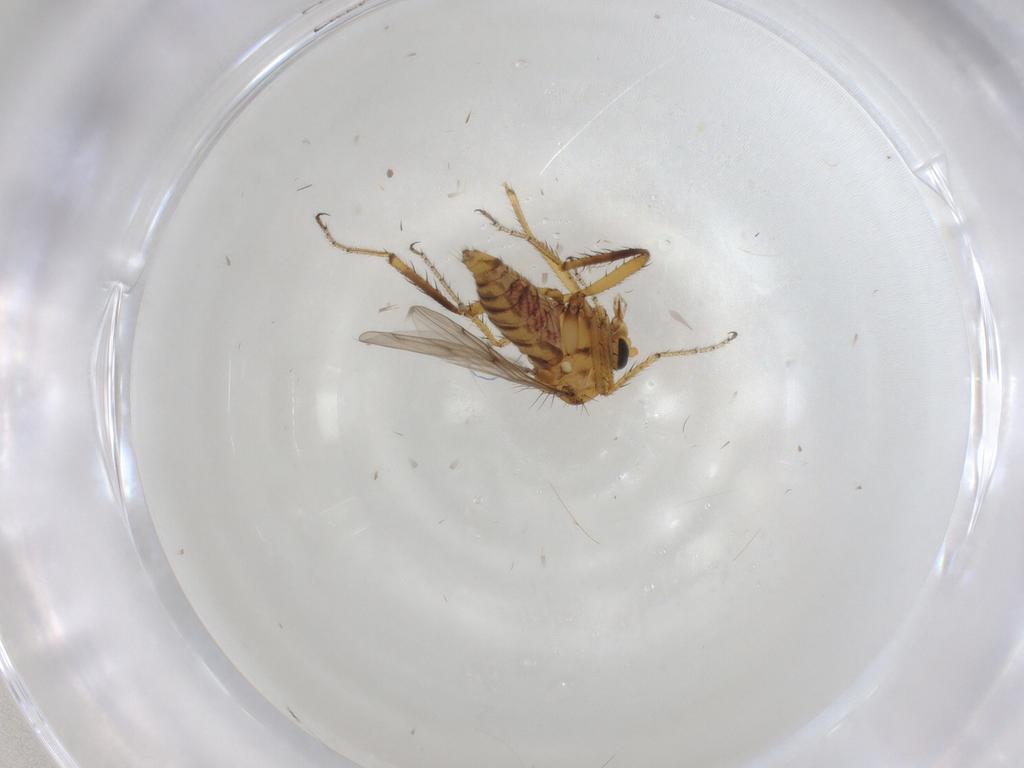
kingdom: Animalia
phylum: Arthropoda
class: Insecta
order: Diptera
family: Ceratopogonidae
